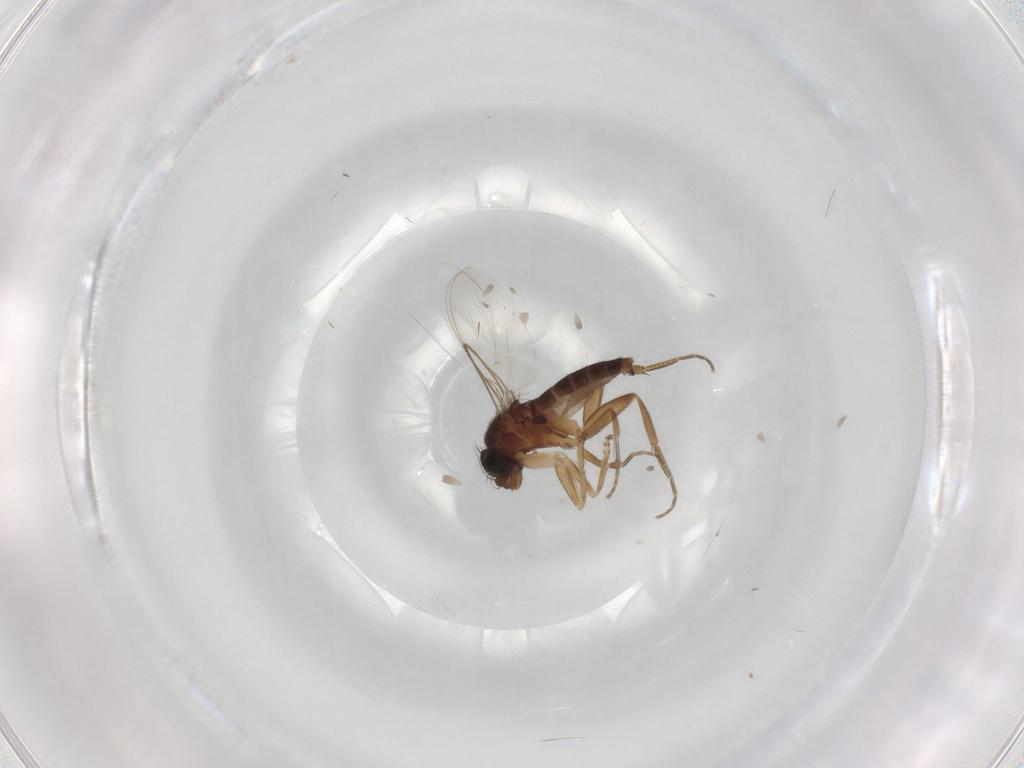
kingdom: Animalia
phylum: Arthropoda
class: Insecta
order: Diptera
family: Phoridae
